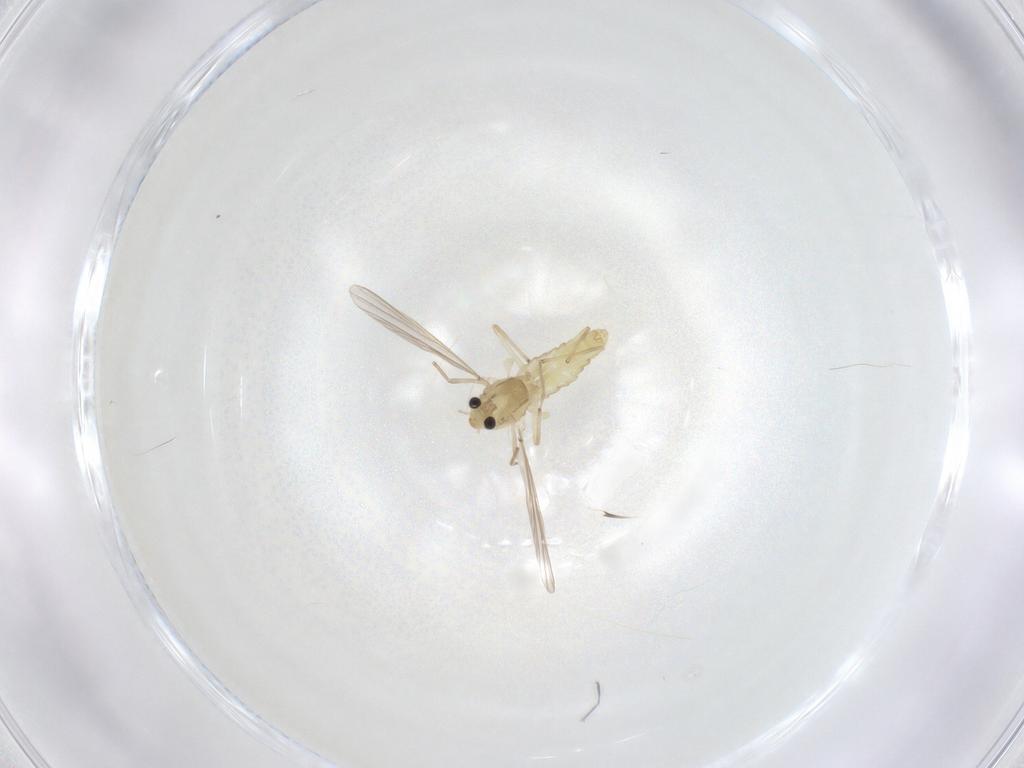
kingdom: Animalia
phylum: Arthropoda
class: Insecta
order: Diptera
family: Chironomidae
